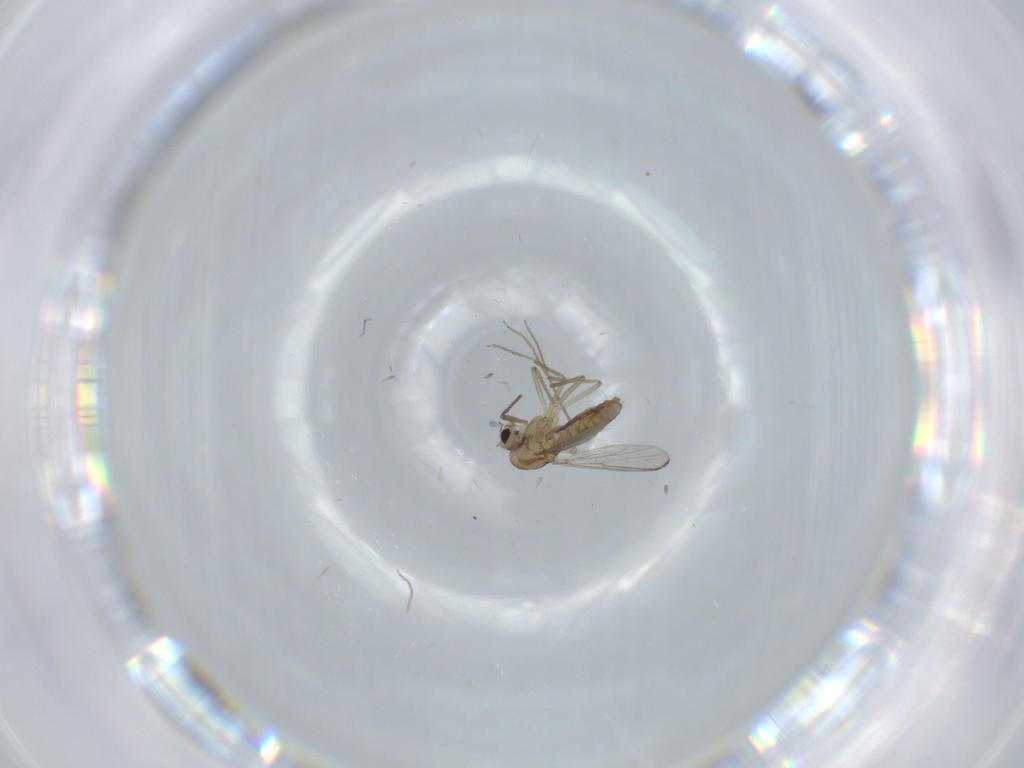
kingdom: Animalia
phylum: Arthropoda
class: Insecta
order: Diptera
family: Chironomidae
